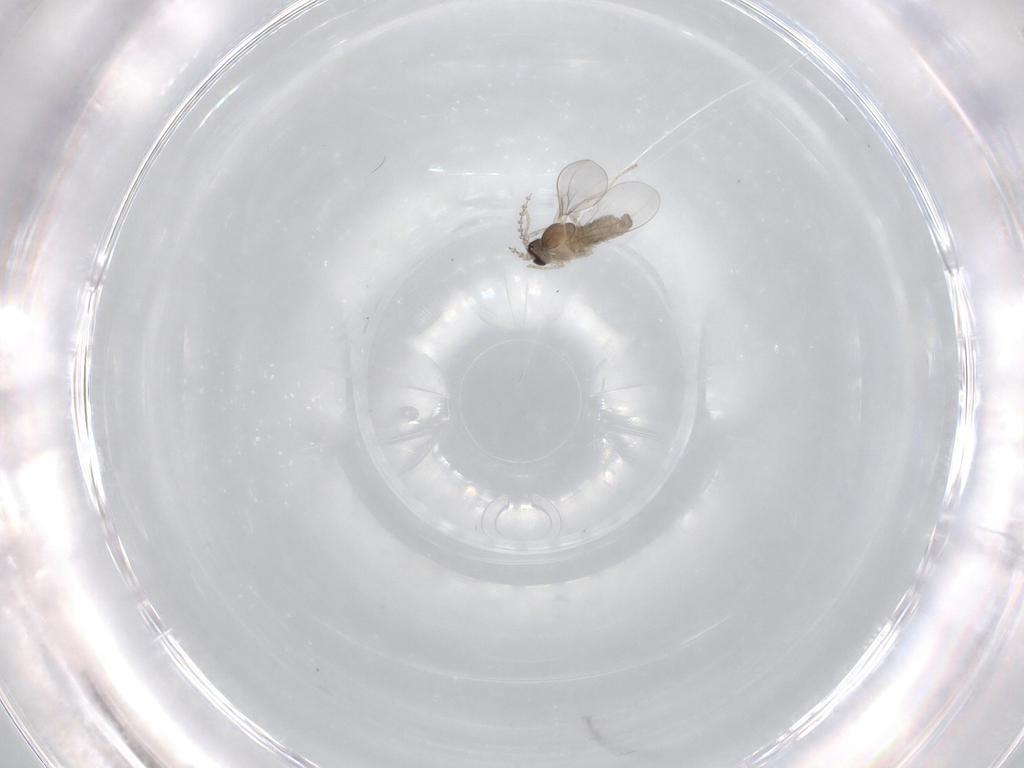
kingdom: Animalia
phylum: Arthropoda
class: Insecta
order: Diptera
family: Cecidomyiidae
